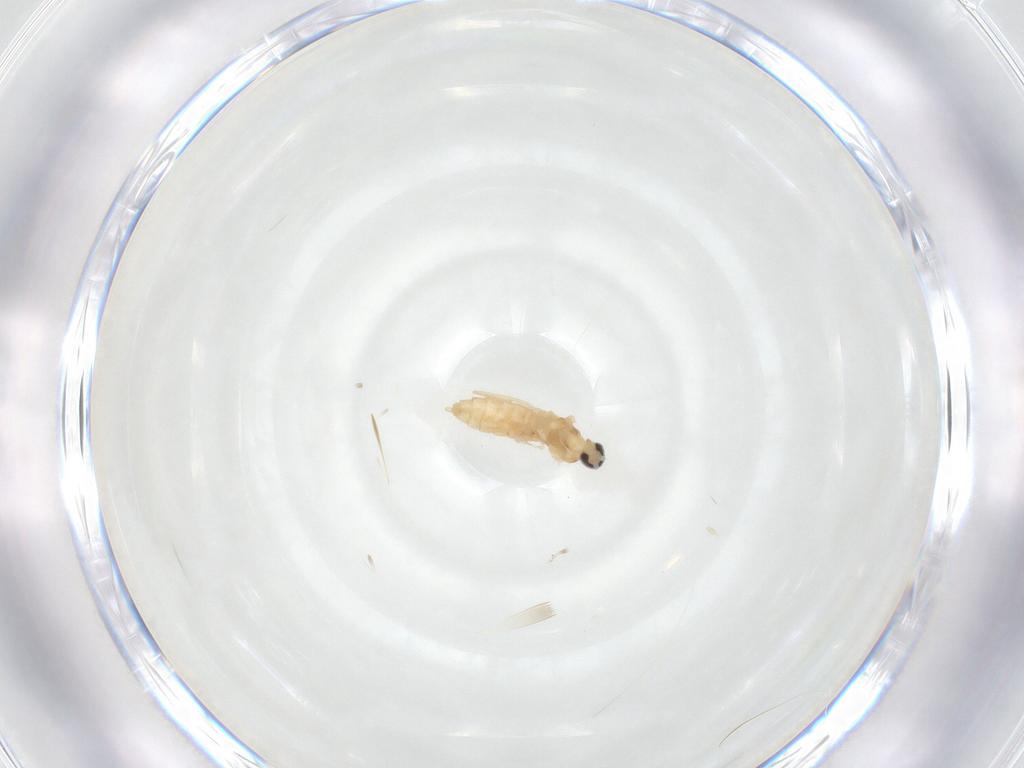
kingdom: Animalia
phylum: Arthropoda
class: Insecta
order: Diptera
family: Cecidomyiidae
